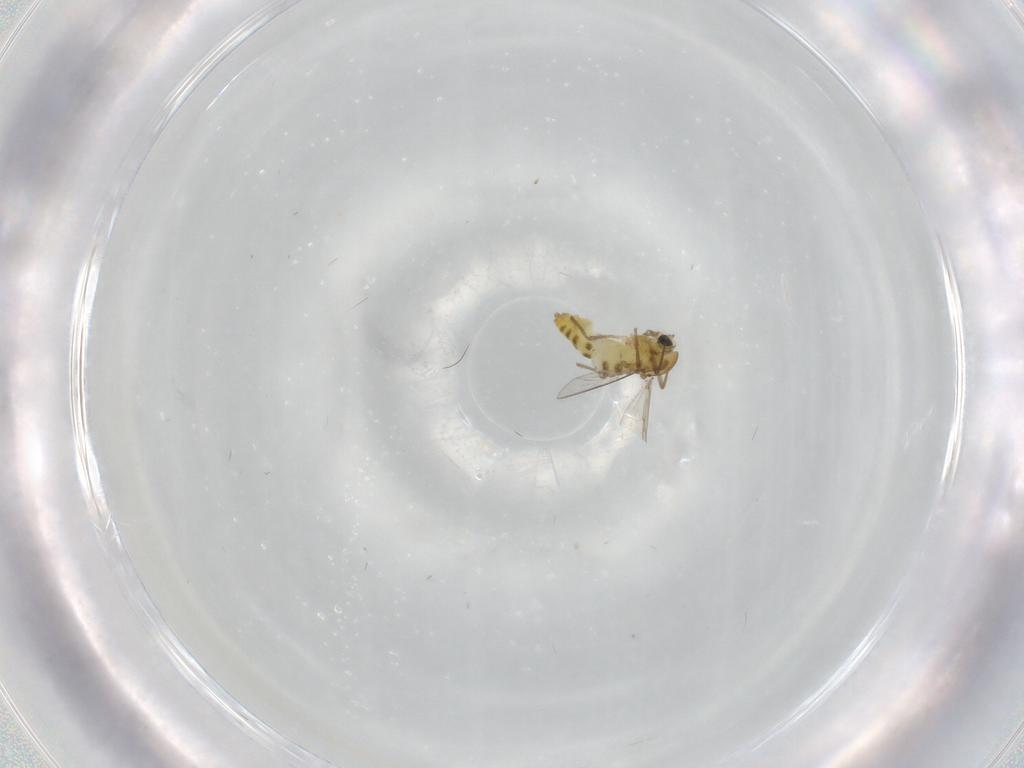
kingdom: Animalia
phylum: Arthropoda
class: Insecta
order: Diptera
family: Chironomidae
